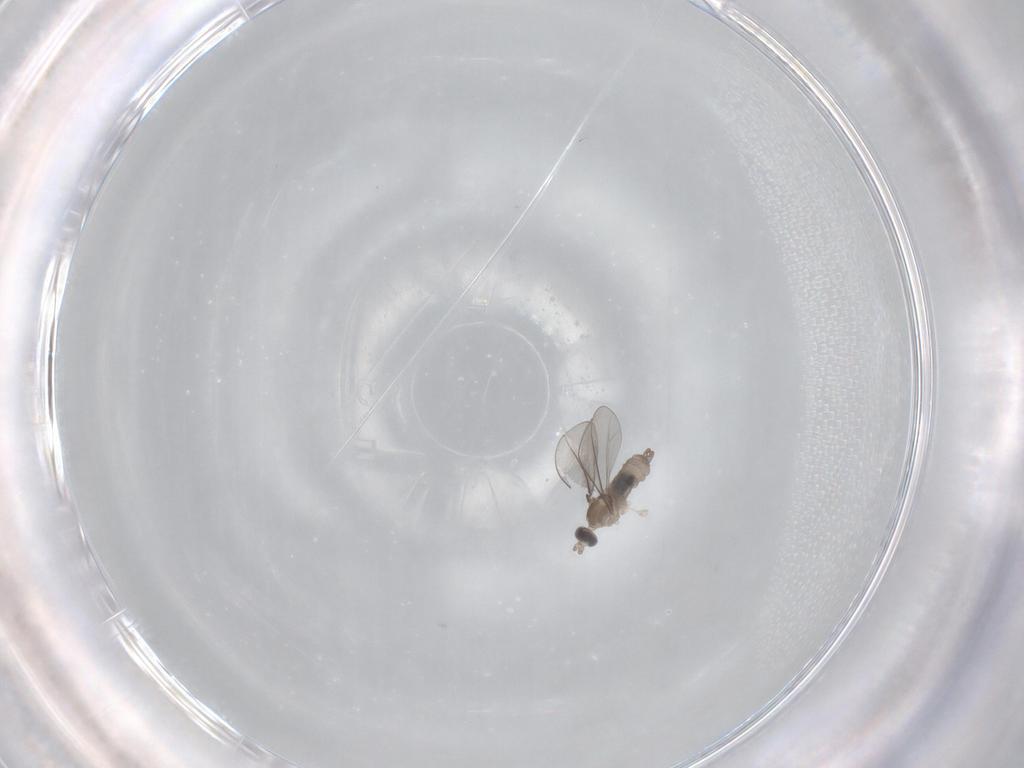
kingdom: Animalia
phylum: Arthropoda
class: Insecta
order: Diptera
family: Cecidomyiidae
